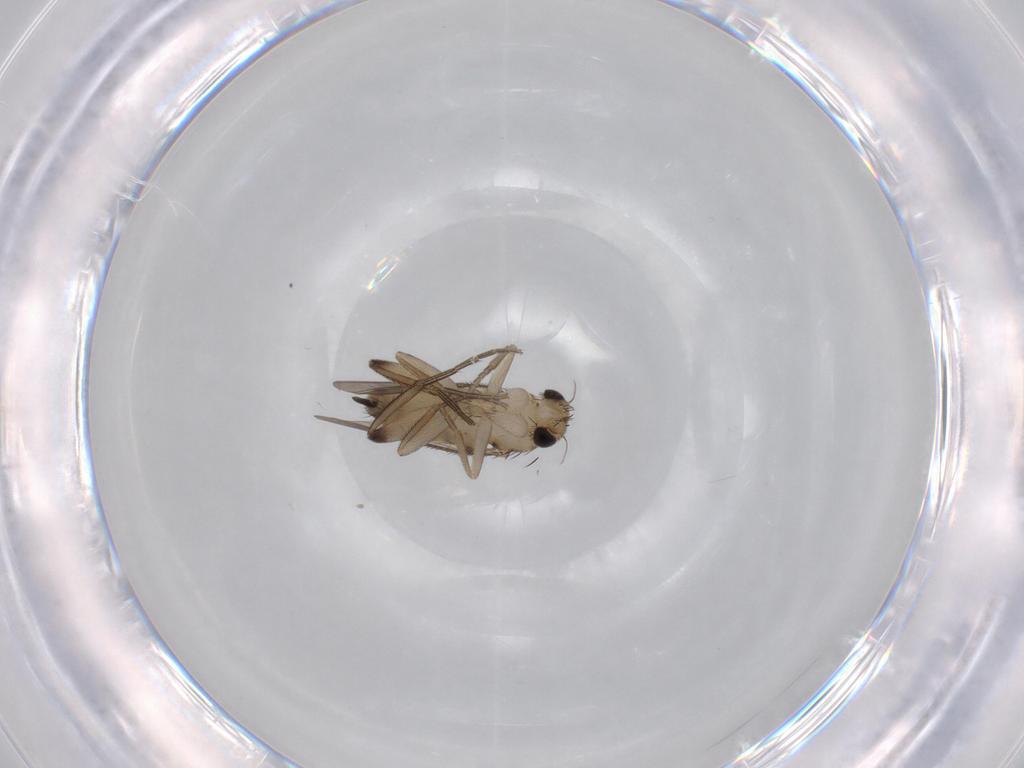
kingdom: Animalia
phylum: Arthropoda
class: Insecta
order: Diptera
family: Phoridae
